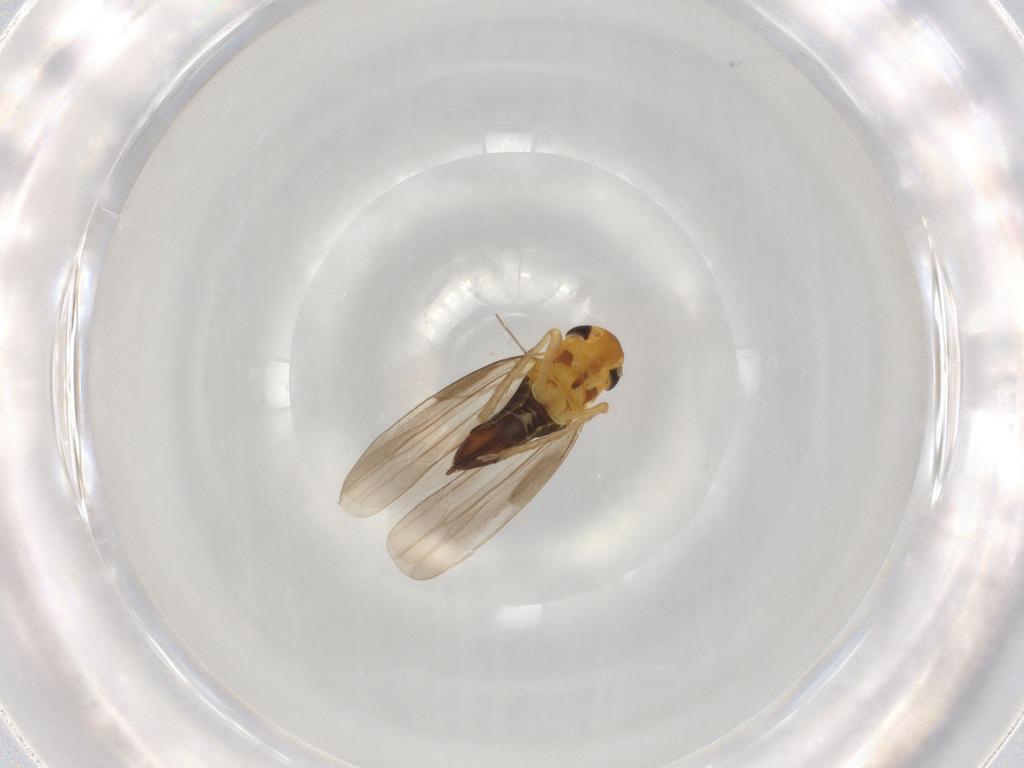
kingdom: Animalia
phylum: Arthropoda
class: Insecta
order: Hemiptera
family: Cicadellidae
